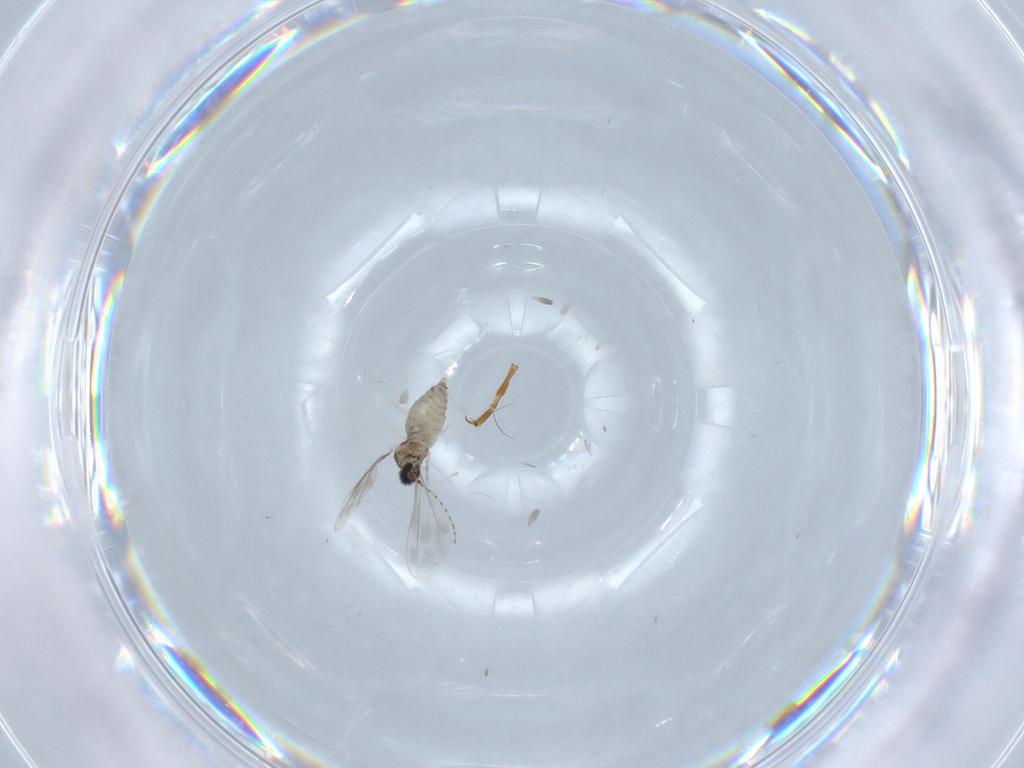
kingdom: Animalia
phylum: Arthropoda
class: Insecta
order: Diptera
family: Cecidomyiidae
